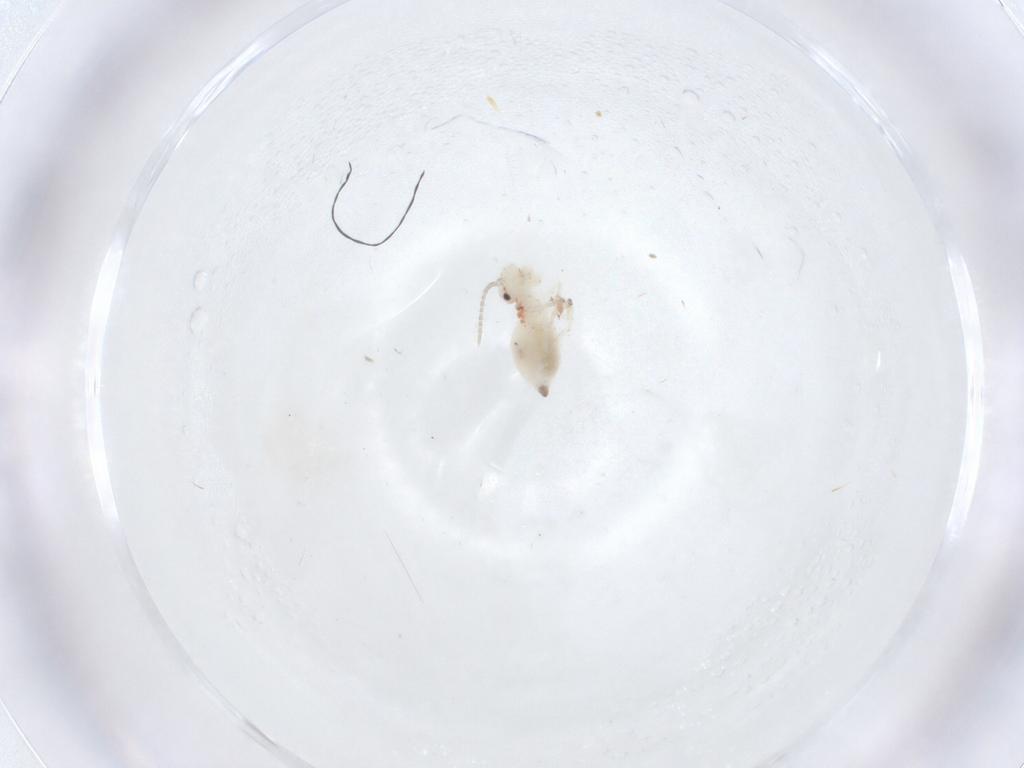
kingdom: Animalia
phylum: Arthropoda
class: Insecta
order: Psocodea
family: Amphipsocidae
